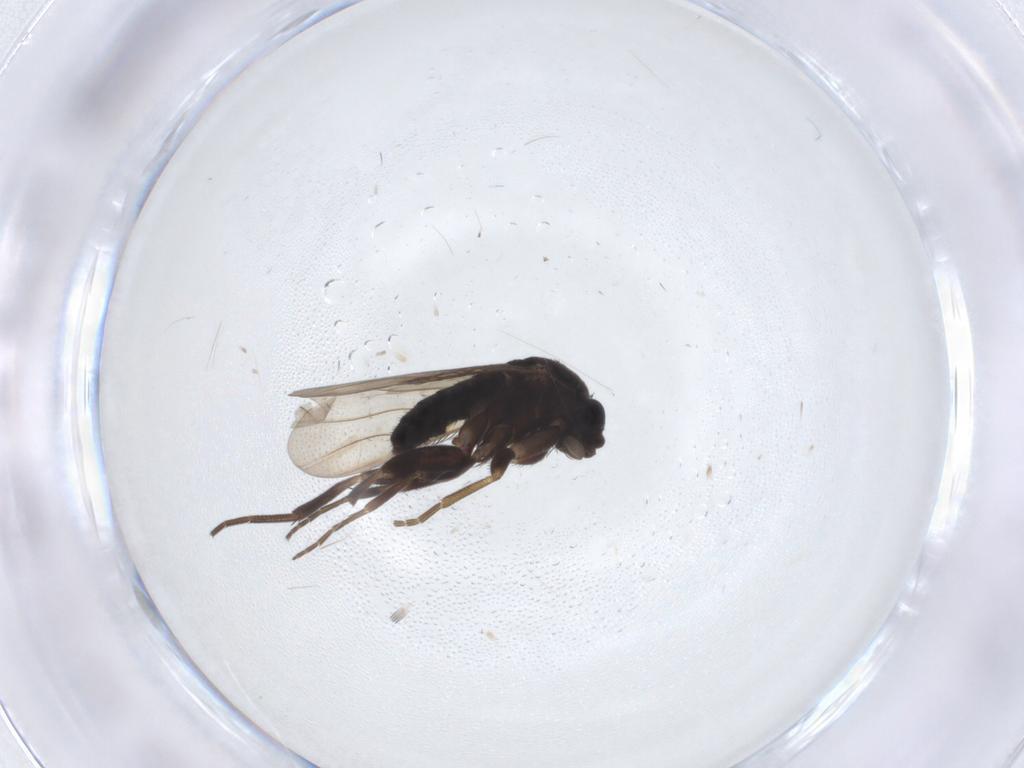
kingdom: Animalia
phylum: Arthropoda
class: Insecta
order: Diptera
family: Phoridae
